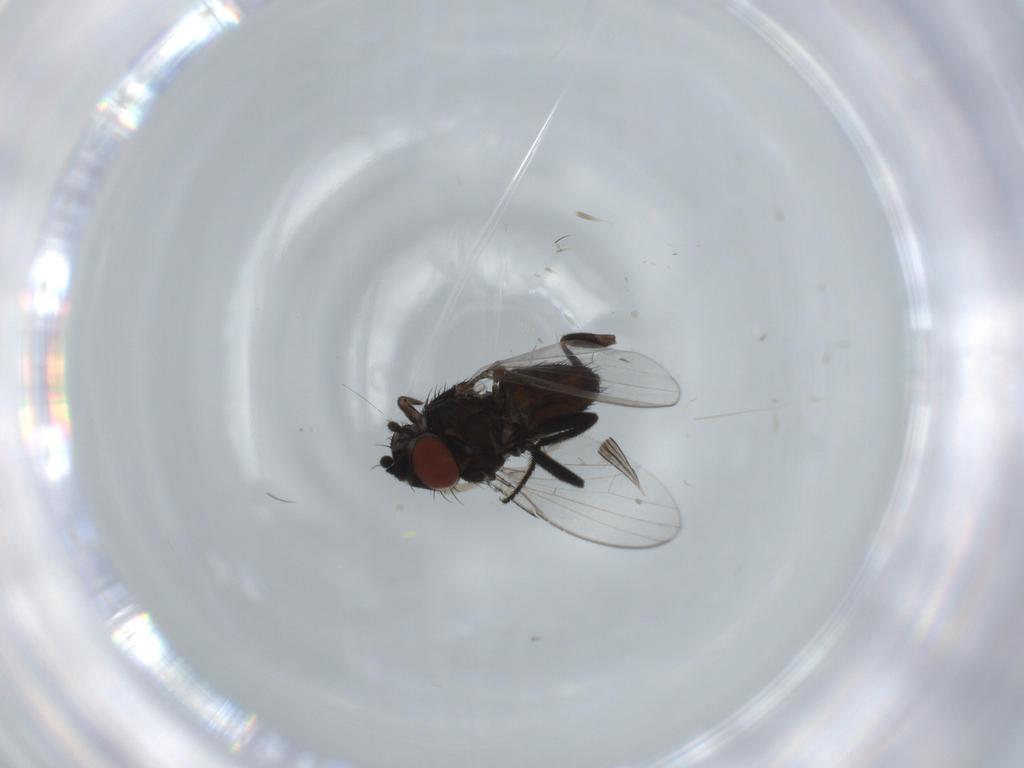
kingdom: Animalia
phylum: Arthropoda
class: Insecta
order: Diptera
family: Milichiidae
